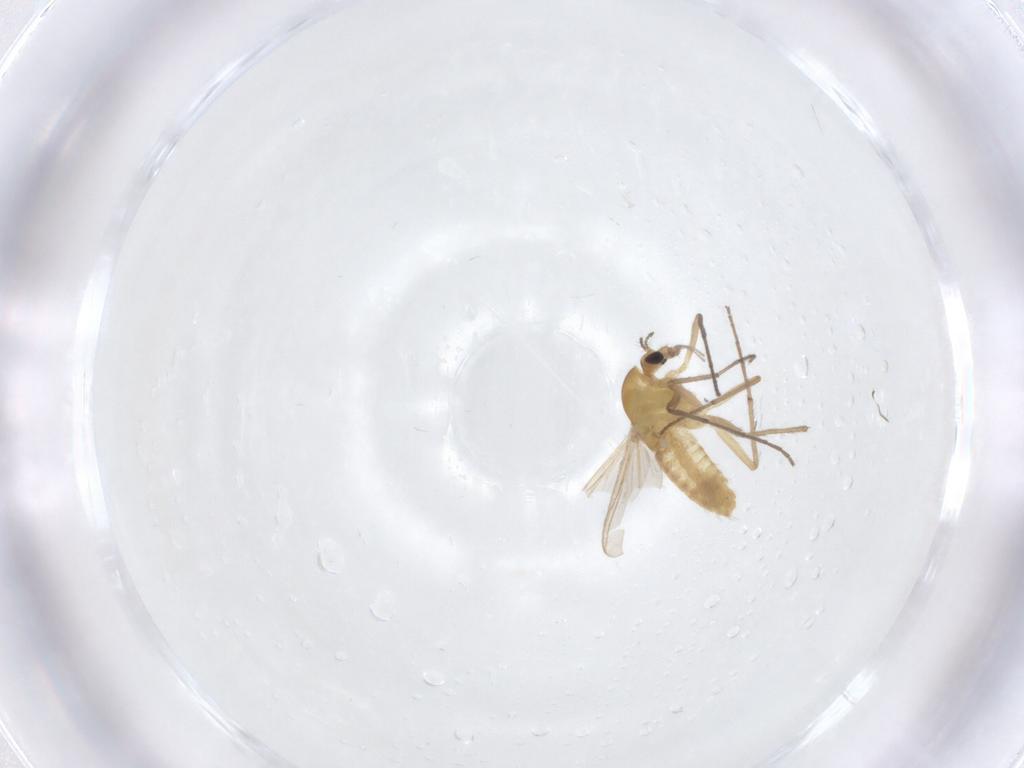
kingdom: Animalia
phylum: Arthropoda
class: Insecta
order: Diptera
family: Chironomidae
